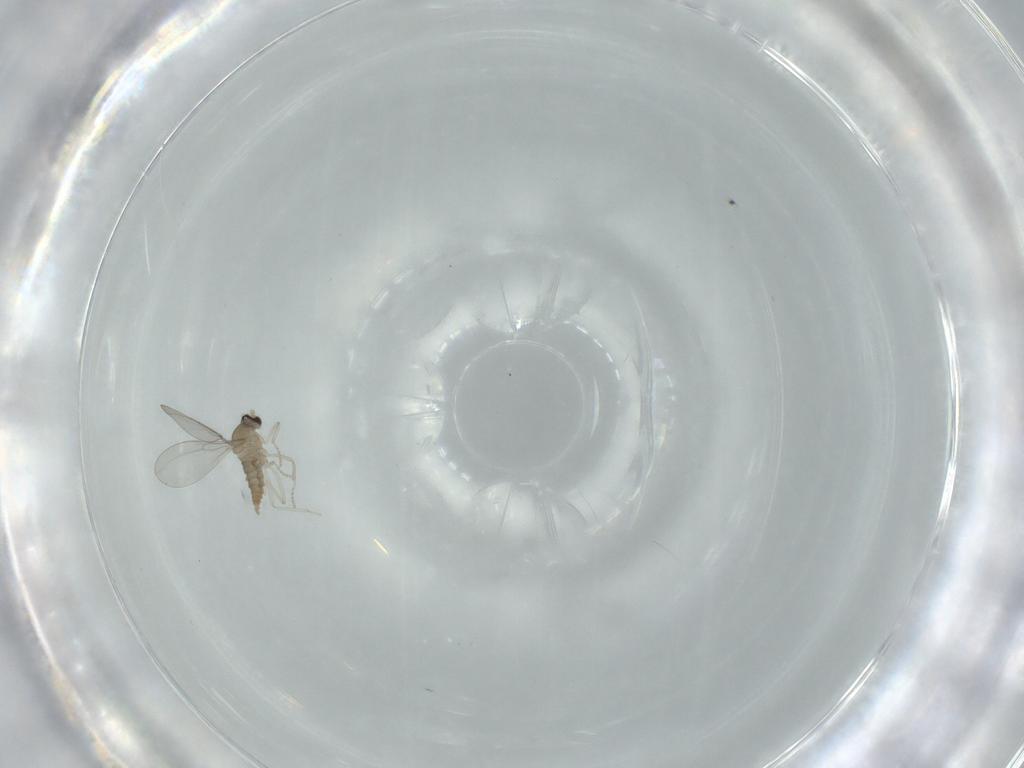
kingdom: Animalia
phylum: Arthropoda
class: Insecta
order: Diptera
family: Cecidomyiidae
